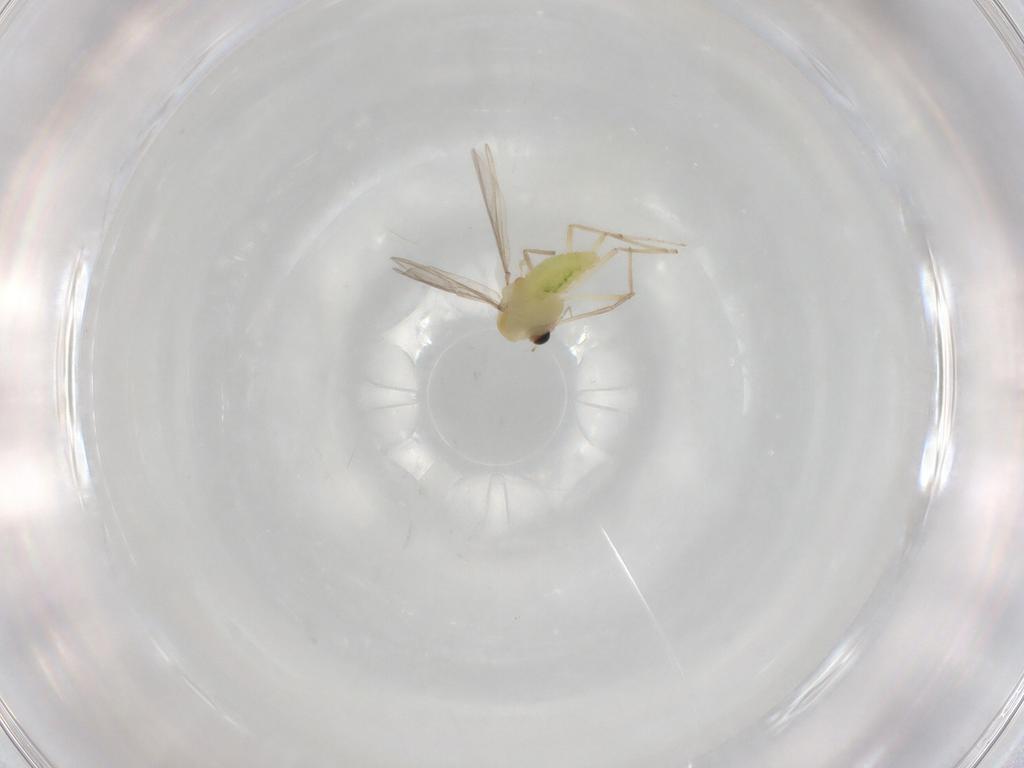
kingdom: Animalia
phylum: Arthropoda
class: Insecta
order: Diptera
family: Chironomidae
